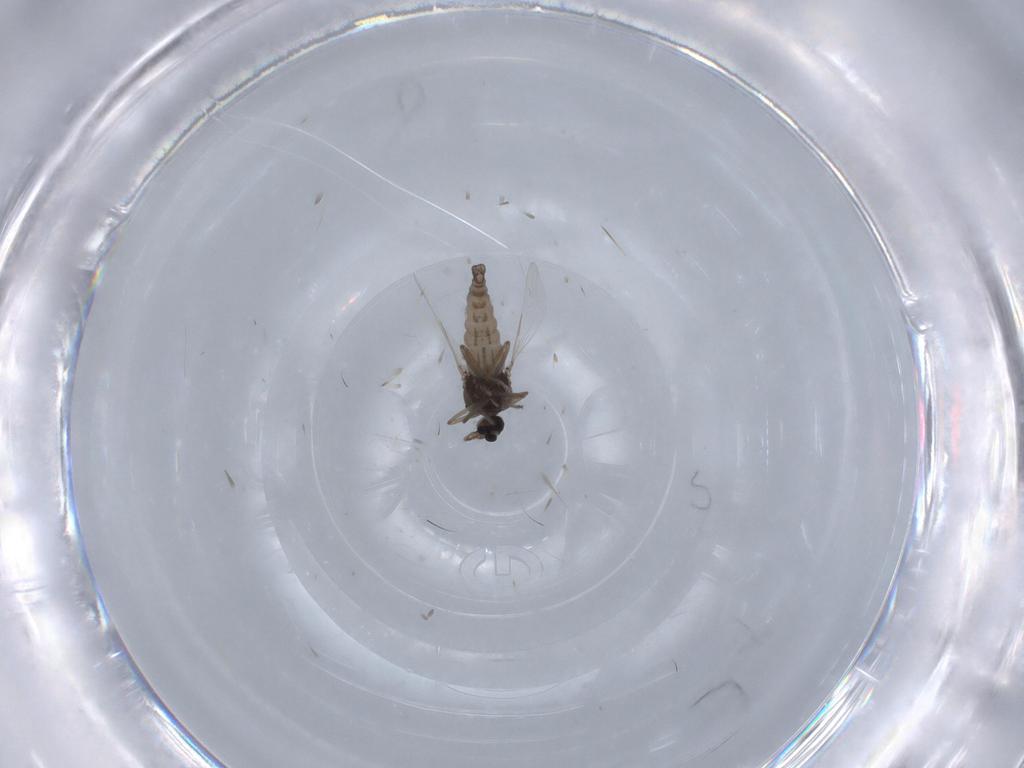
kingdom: Animalia
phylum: Arthropoda
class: Insecta
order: Diptera
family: Ceratopogonidae
